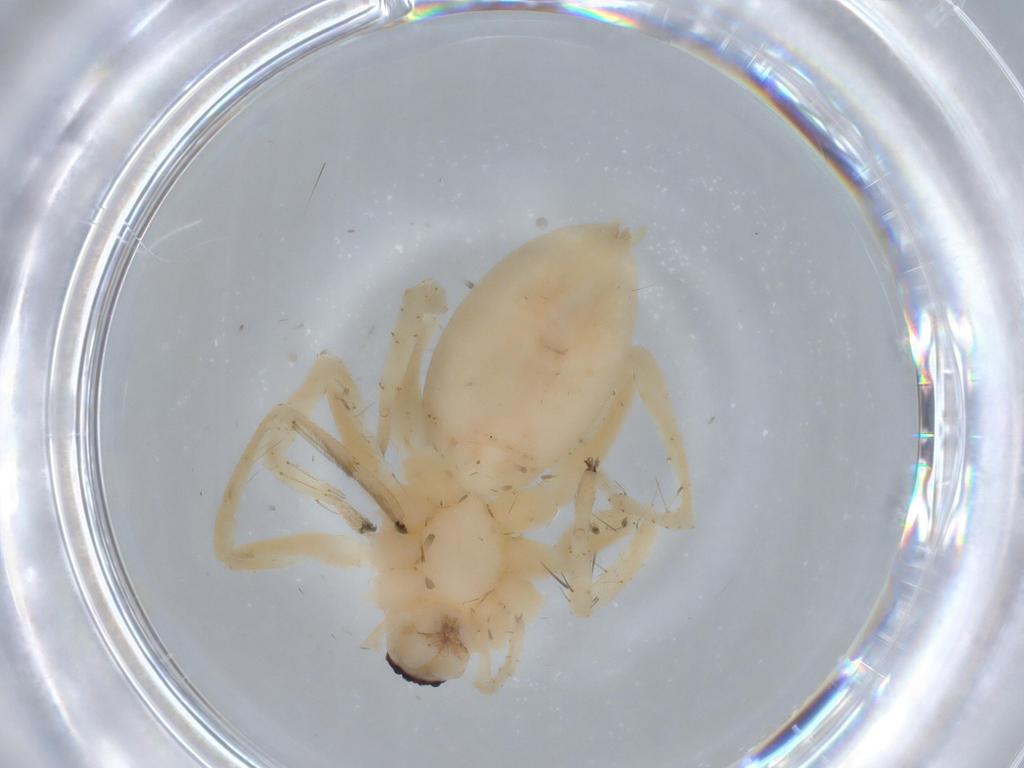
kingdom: Animalia
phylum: Arthropoda
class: Arachnida
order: Araneae
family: Anyphaenidae
